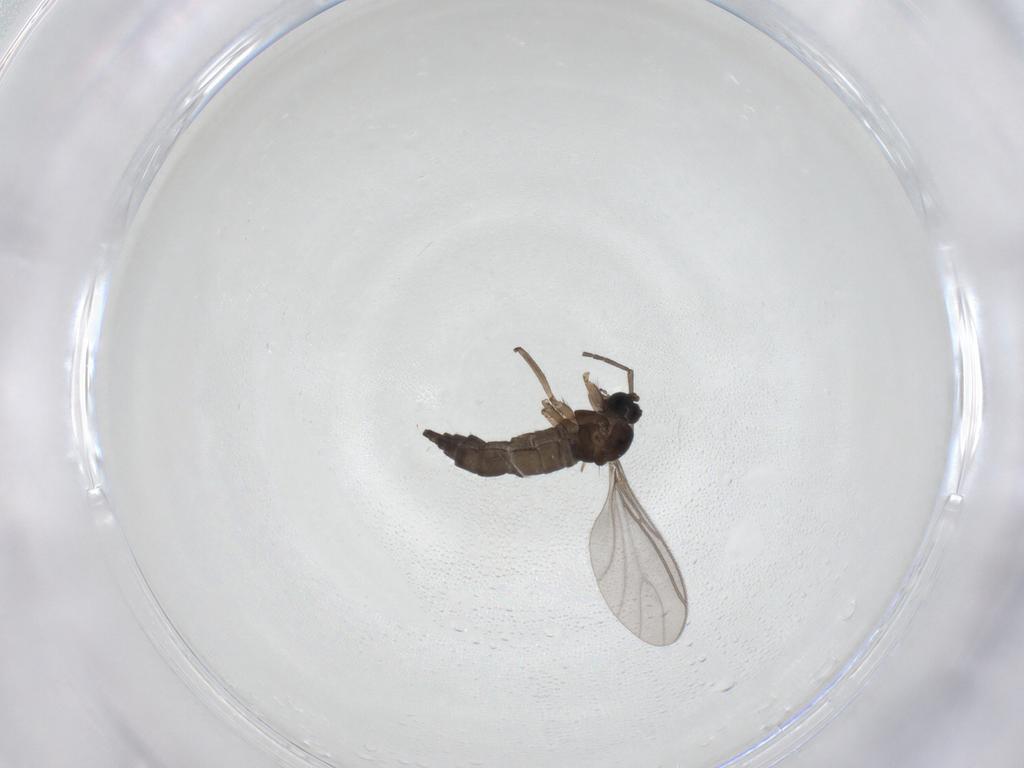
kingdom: Animalia
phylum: Arthropoda
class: Insecta
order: Diptera
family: Sciaridae
